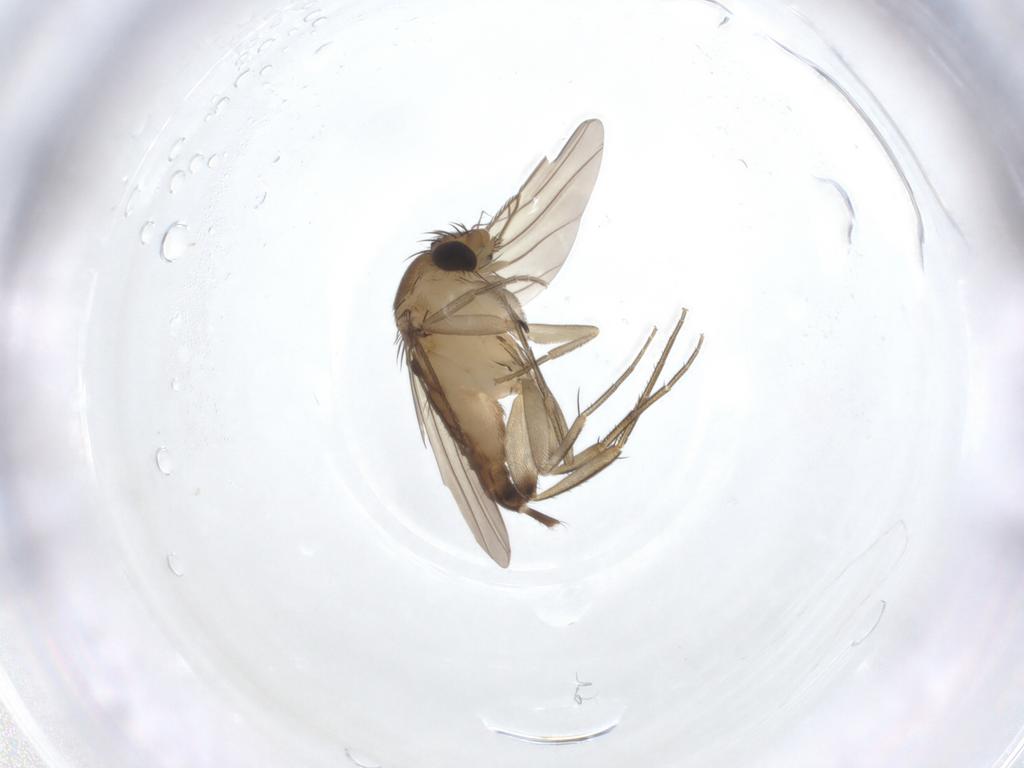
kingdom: Animalia
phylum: Arthropoda
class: Insecta
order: Diptera
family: Phoridae
